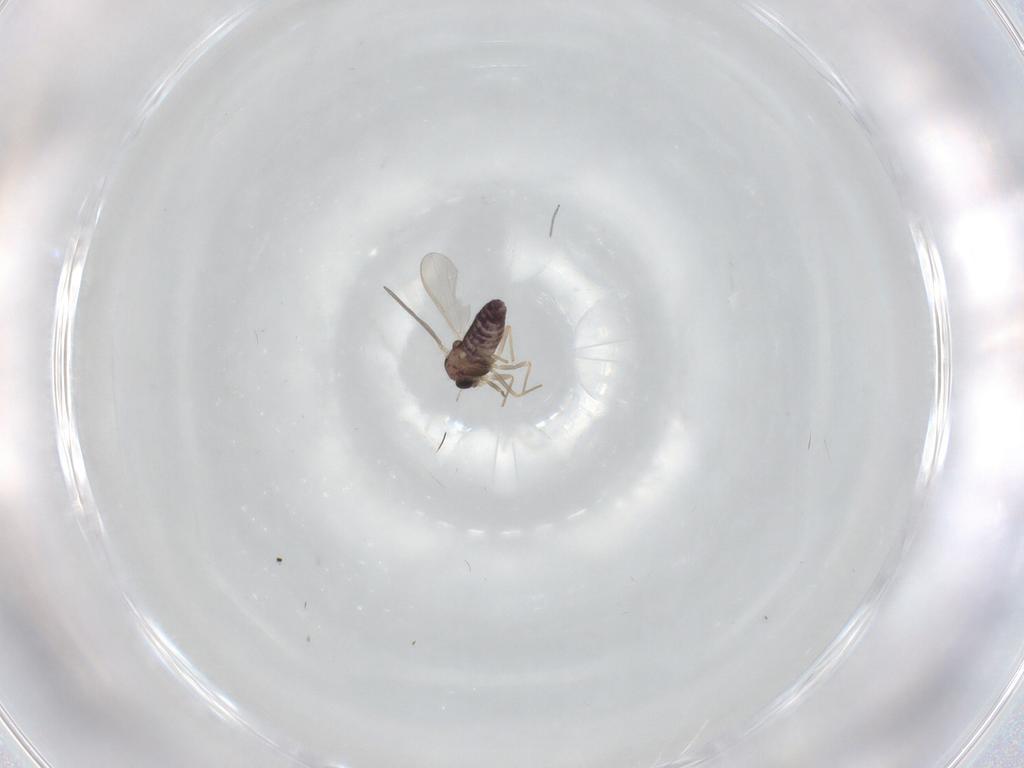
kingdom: Animalia
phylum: Arthropoda
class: Insecta
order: Diptera
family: Chironomidae
